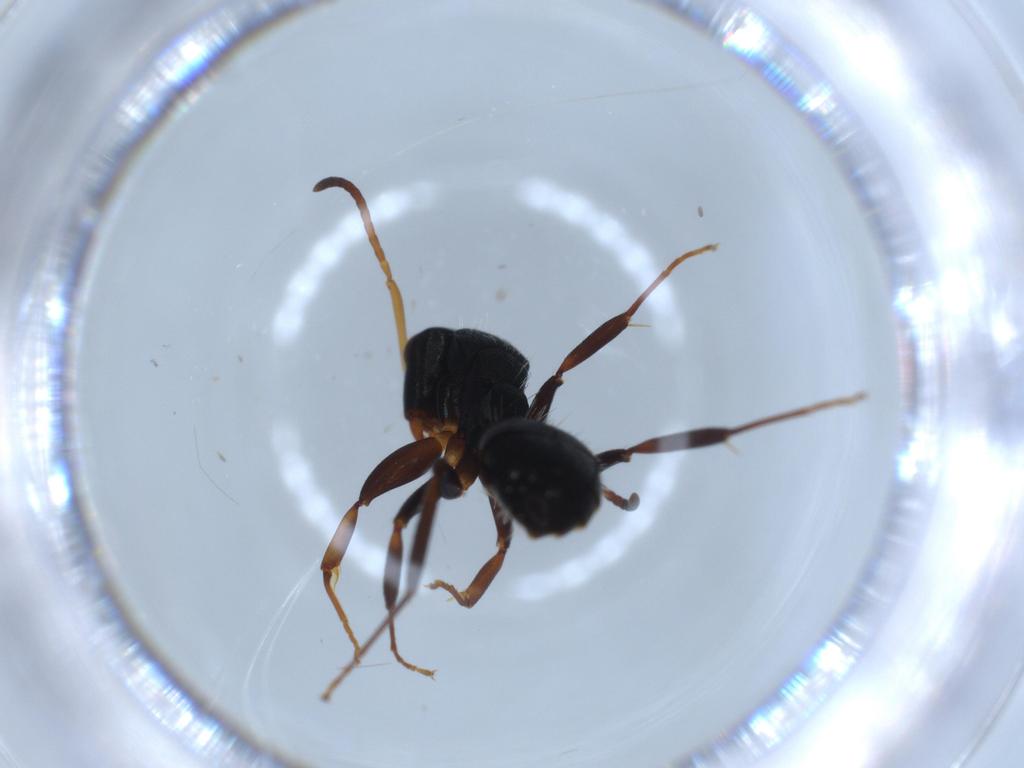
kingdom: Animalia
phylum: Arthropoda
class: Insecta
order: Hymenoptera
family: Formicidae
